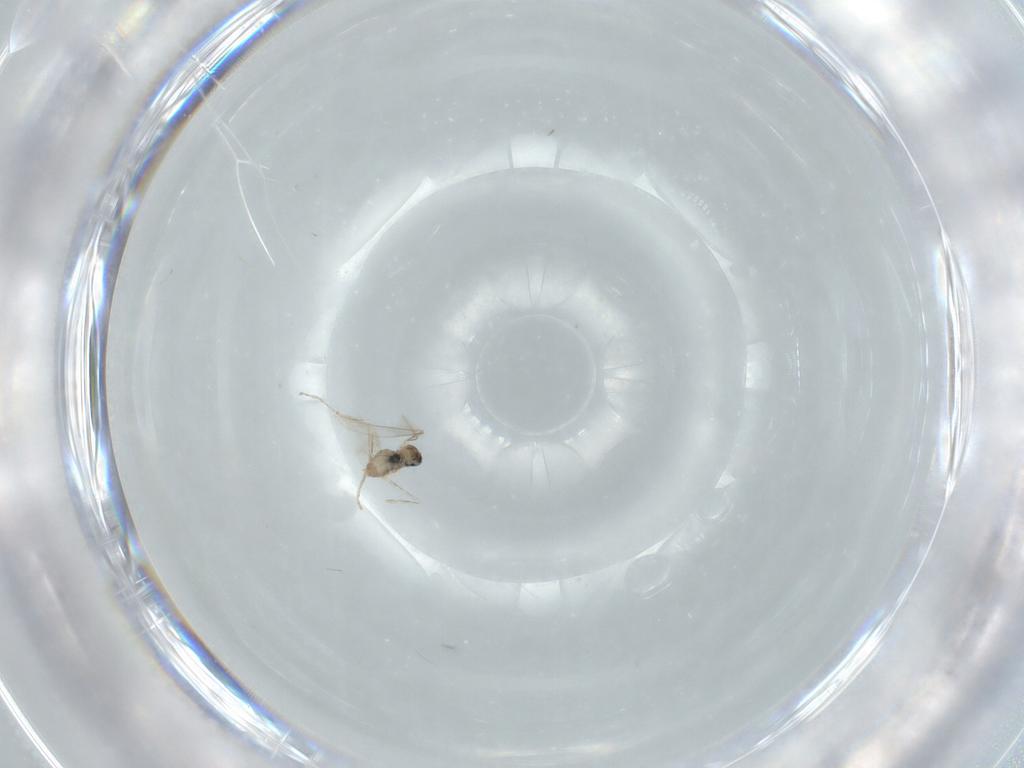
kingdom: Animalia
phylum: Arthropoda
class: Insecta
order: Diptera
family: Cecidomyiidae
